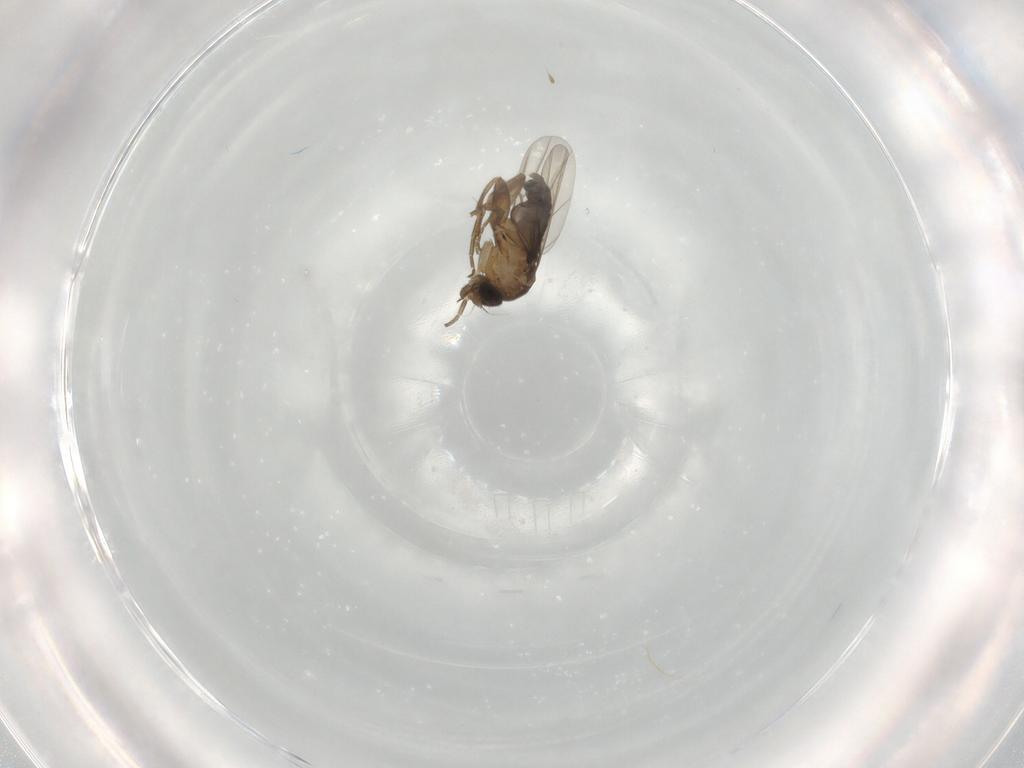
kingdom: Animalia
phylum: Arthropoda
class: Insecta
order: Diptera
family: Phoridae
